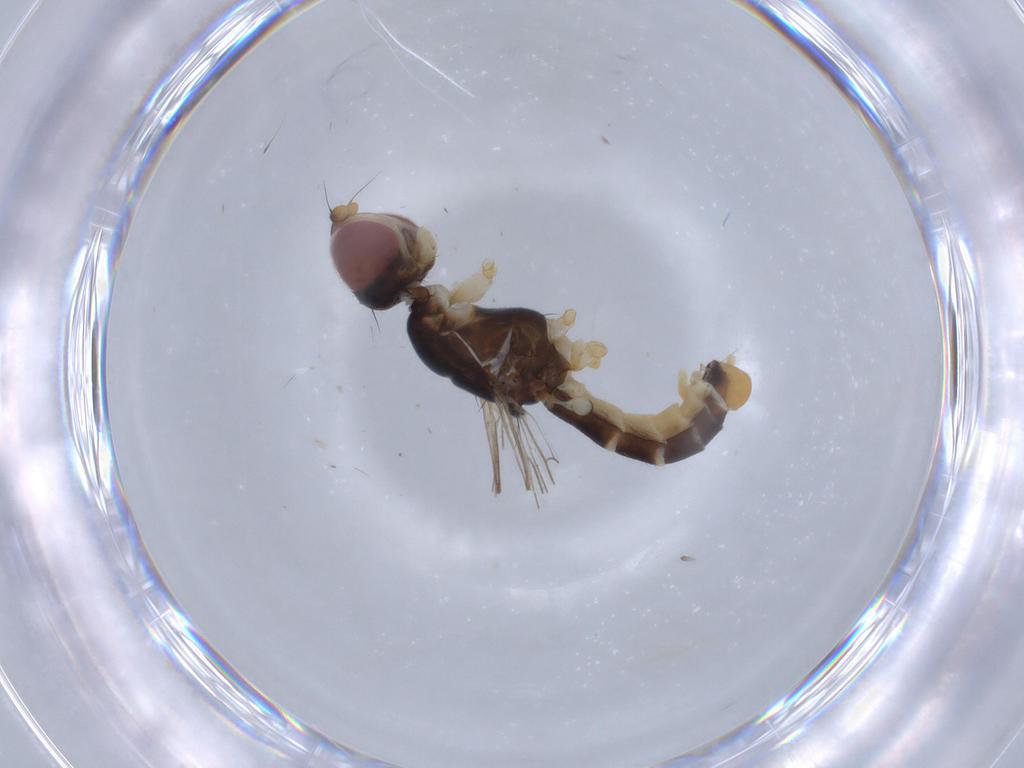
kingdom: Animalia
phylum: Arthropoda
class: Insecta
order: Diptera
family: Micropezidae
